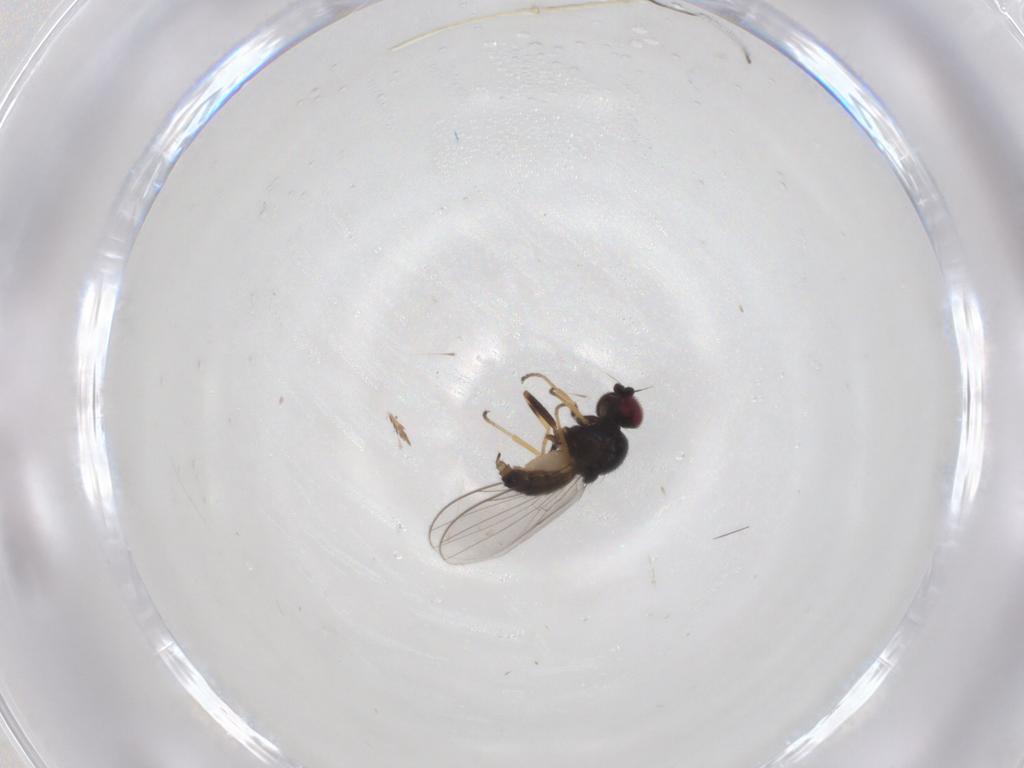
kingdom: Animalia
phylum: Arthropoda
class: Insecta
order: Diptera
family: Chloropidae
